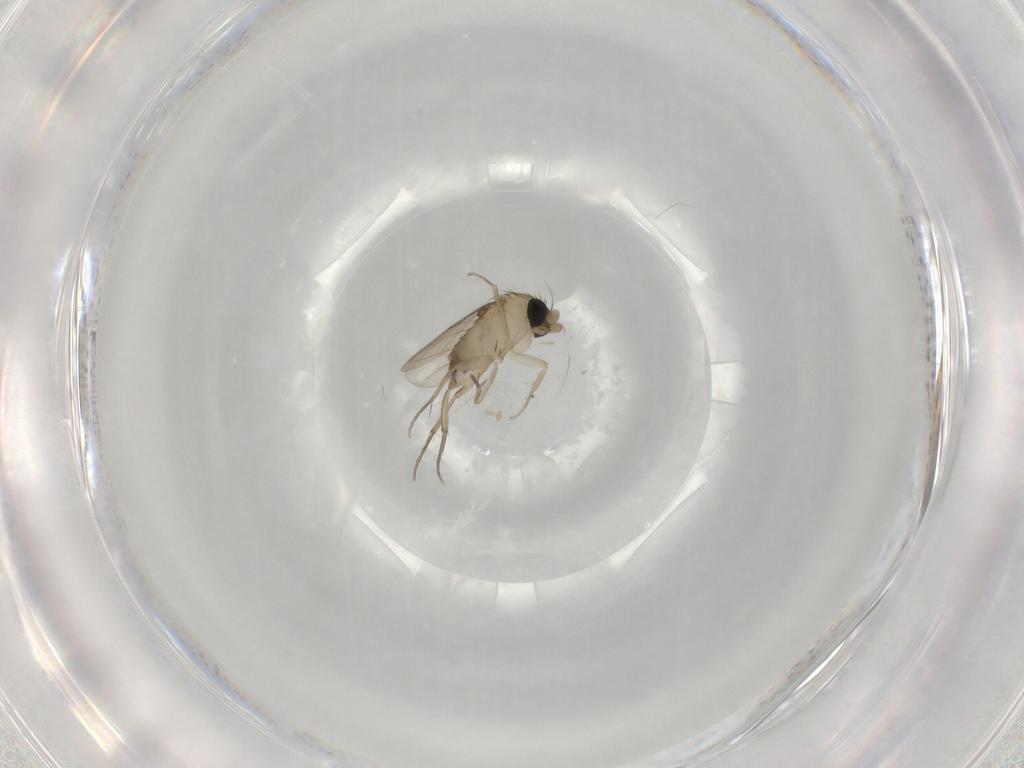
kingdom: Animalia
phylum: Arthropoda
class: Insecta
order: Diptera
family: Phoridae
